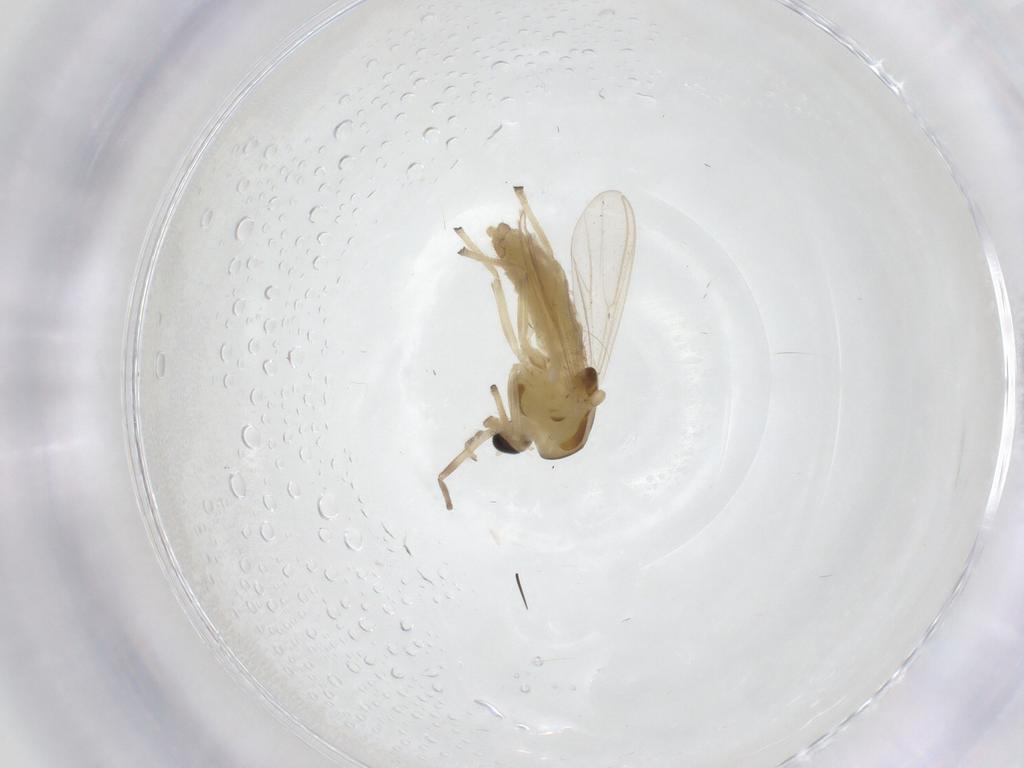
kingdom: Animalia
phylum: Arthropoda
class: Insecta
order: Diptera
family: Chironomidae
